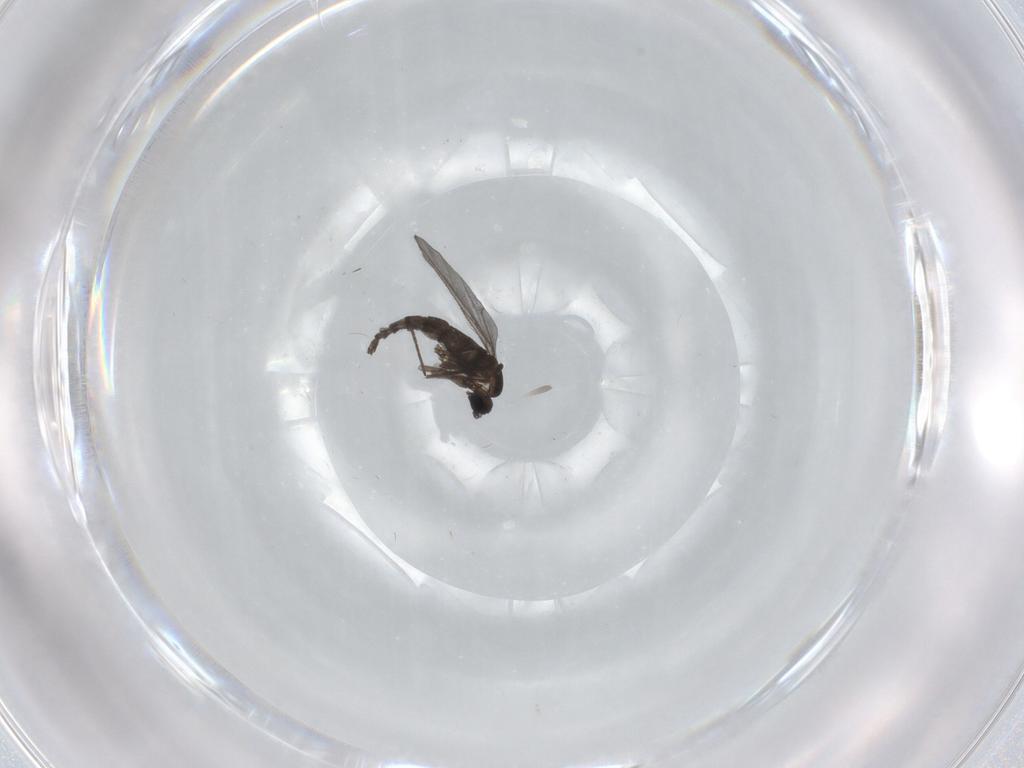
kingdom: Animalia
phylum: Arthropoda
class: Insecta
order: Diptera
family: Sciaridae
